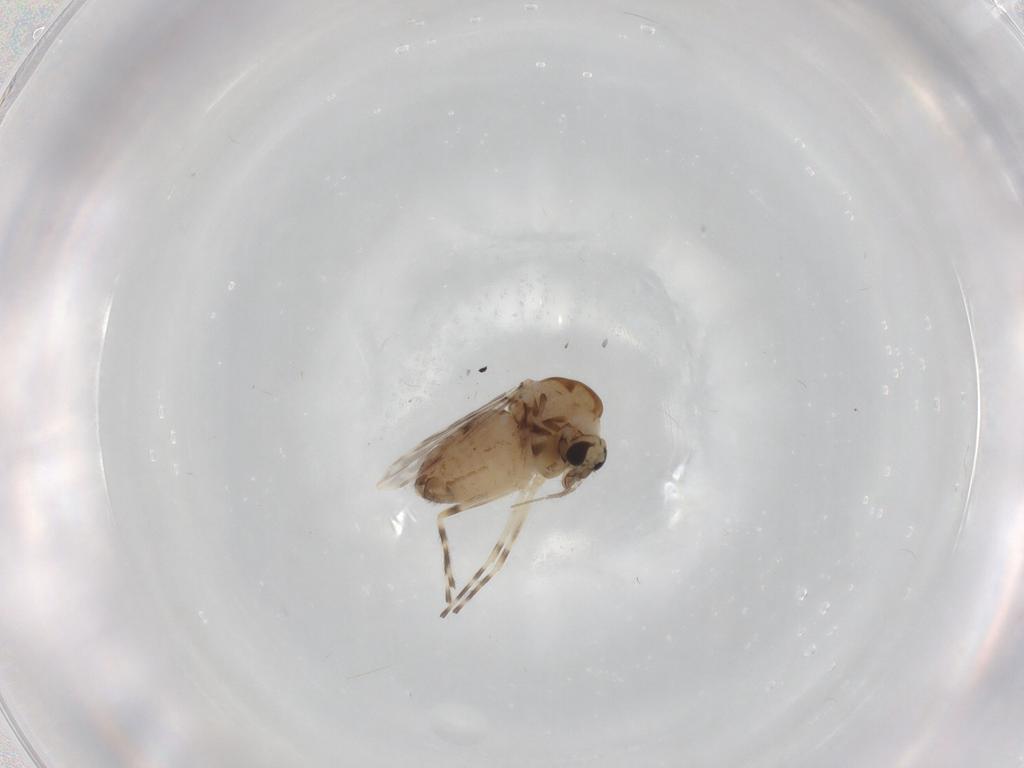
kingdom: Animalia
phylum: Arthropoda
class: Insecta
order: Diptera
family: Chironomidae
